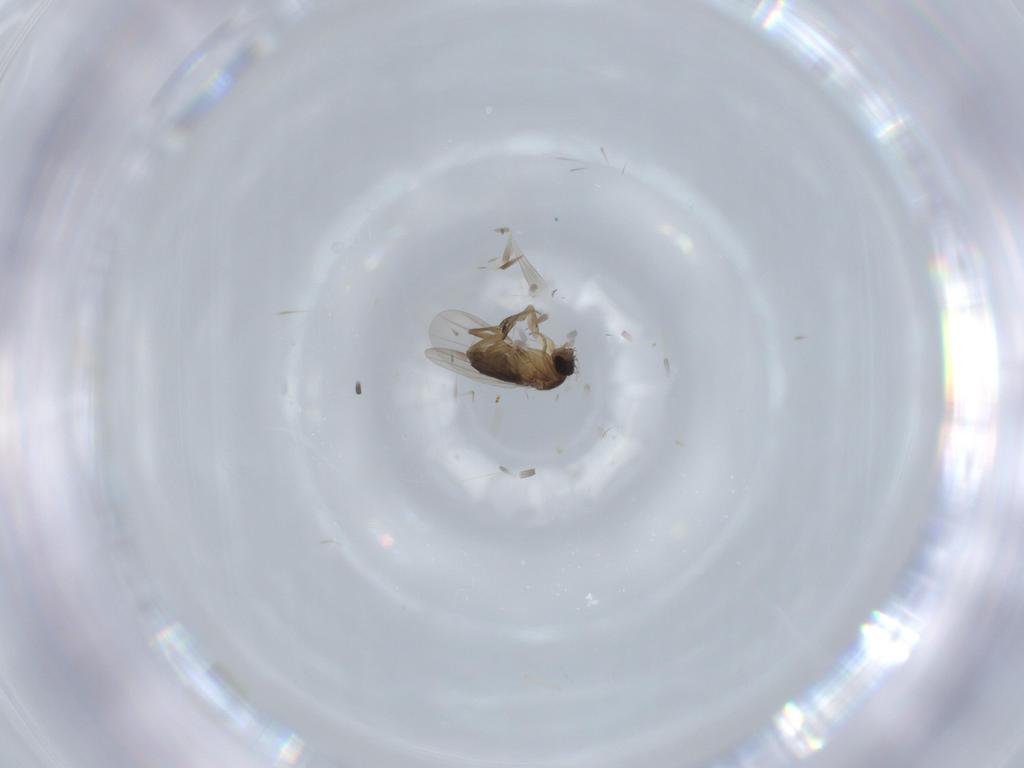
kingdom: Animalia
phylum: Arthropoda
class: Insecta
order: Diptera
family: Phoridae
